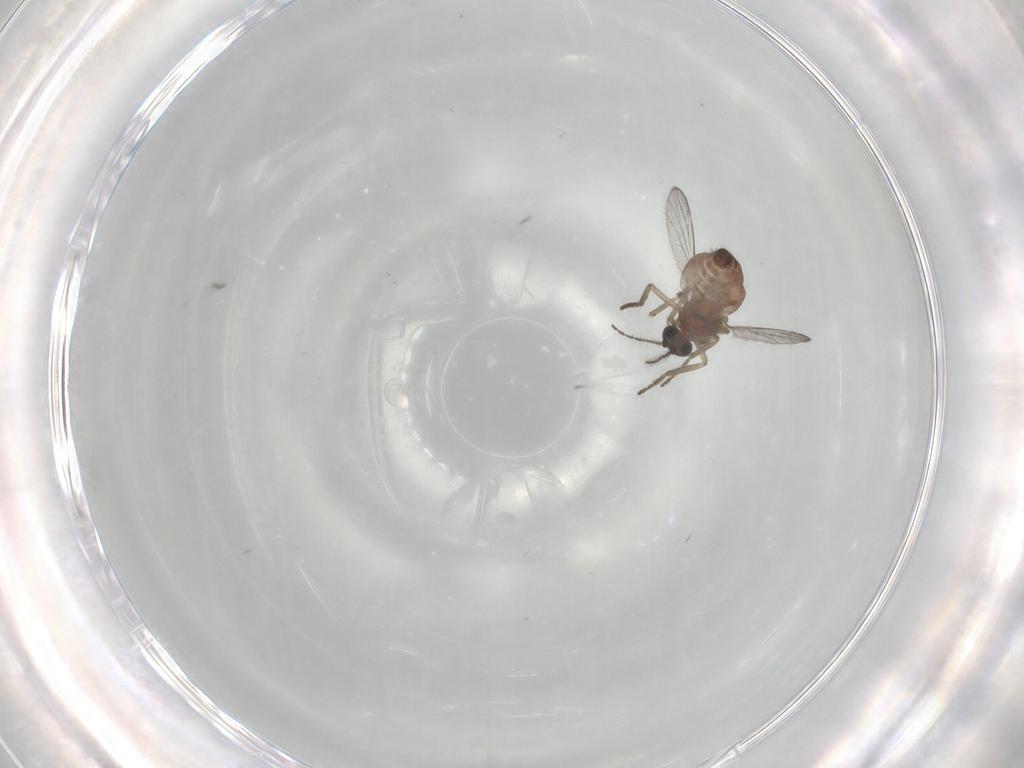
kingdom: Animalia
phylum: Arthropoda
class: Insecta
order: Diptera
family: Ceratopogonidae
